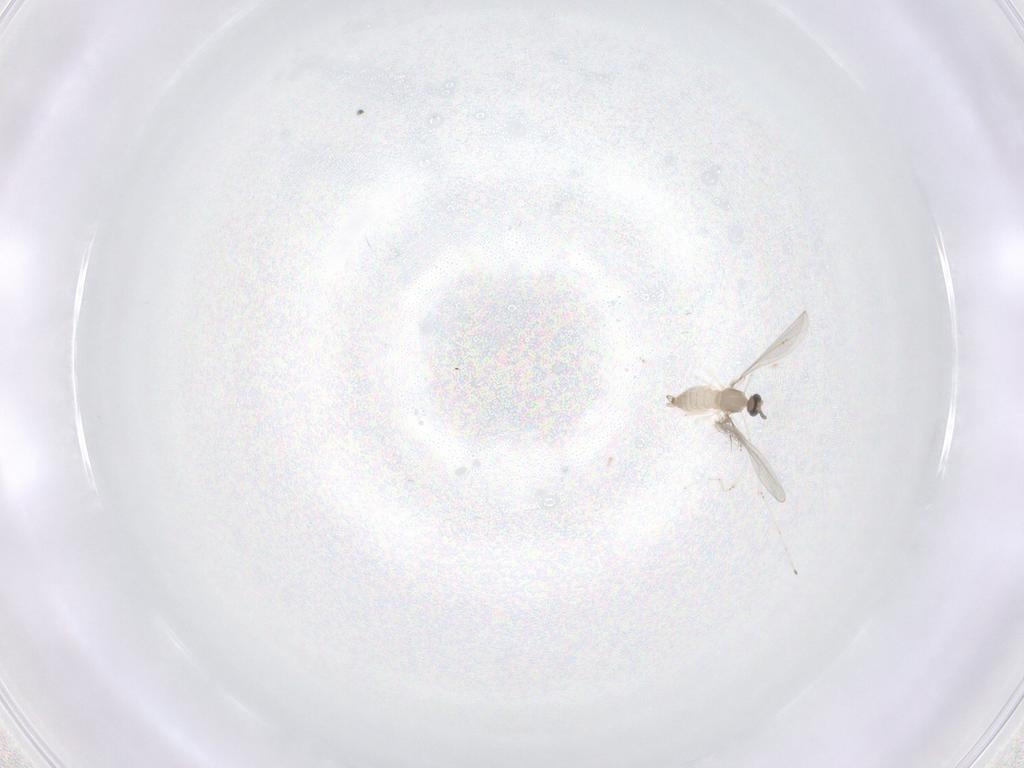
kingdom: Animalia
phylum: Arthropoda
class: Insecta
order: Diptera
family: Cecidomyiidae
